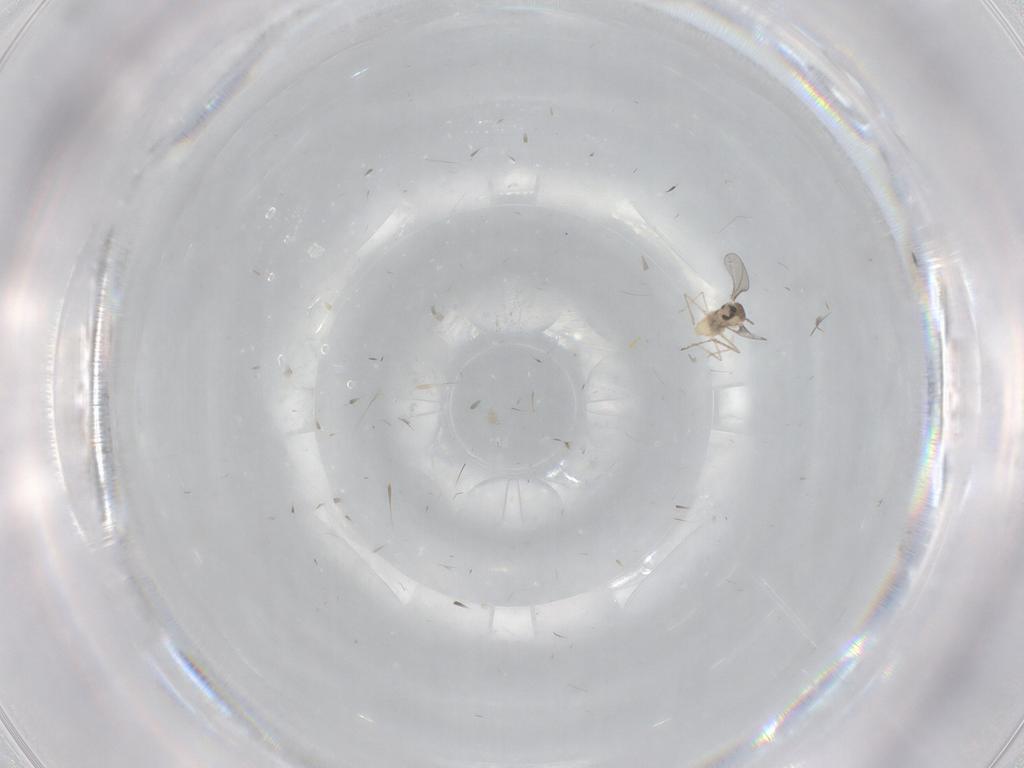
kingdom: Animalia
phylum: Arthropoda
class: Insecta
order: Diptera
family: Cecidomyiidae
